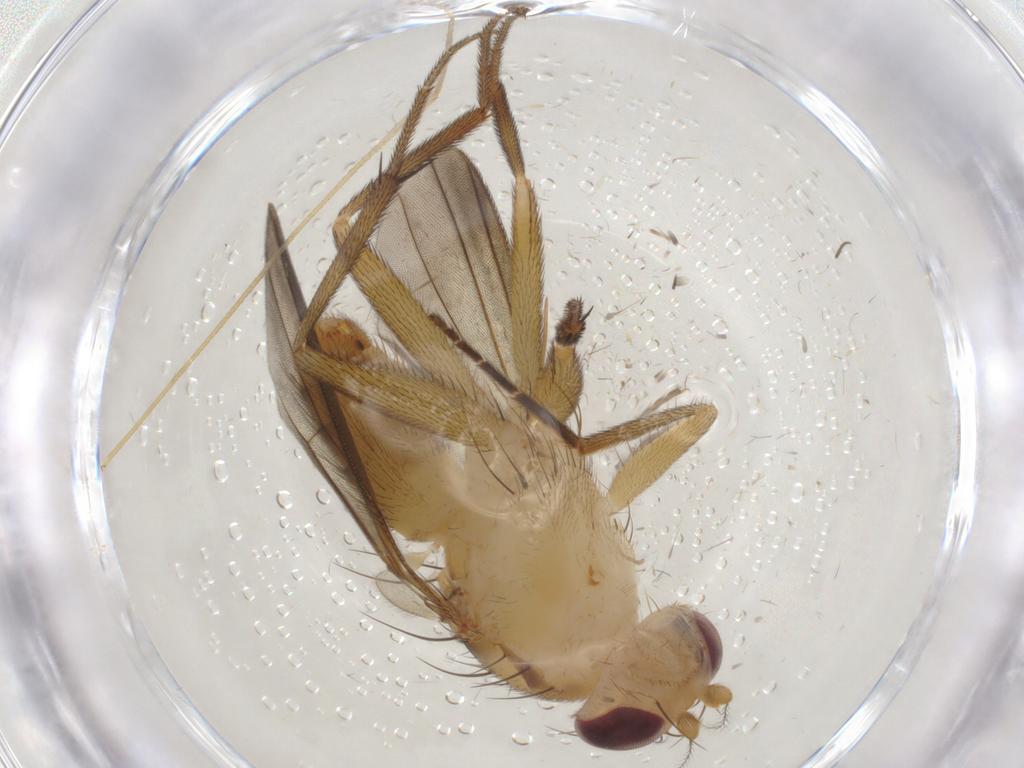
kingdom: Animalia
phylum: Arthropoda
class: Insecta
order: Diptera
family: Clusiidae
